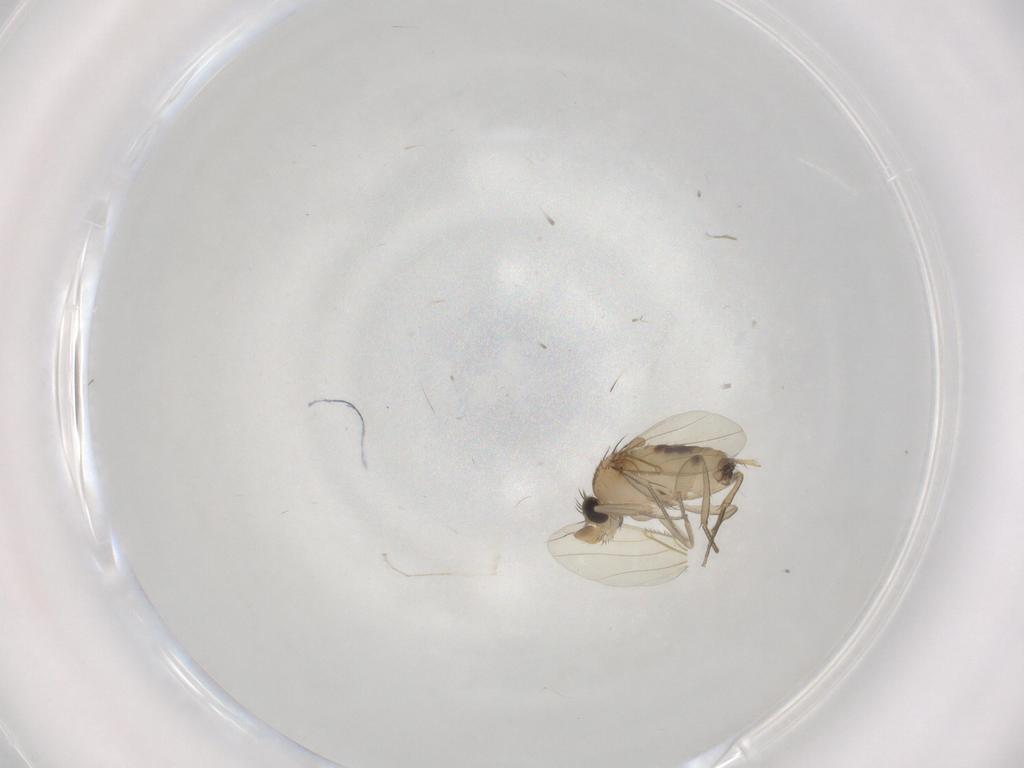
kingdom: Animalia
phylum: Arthropoda
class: Insecta
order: Diptera
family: Phoridae
